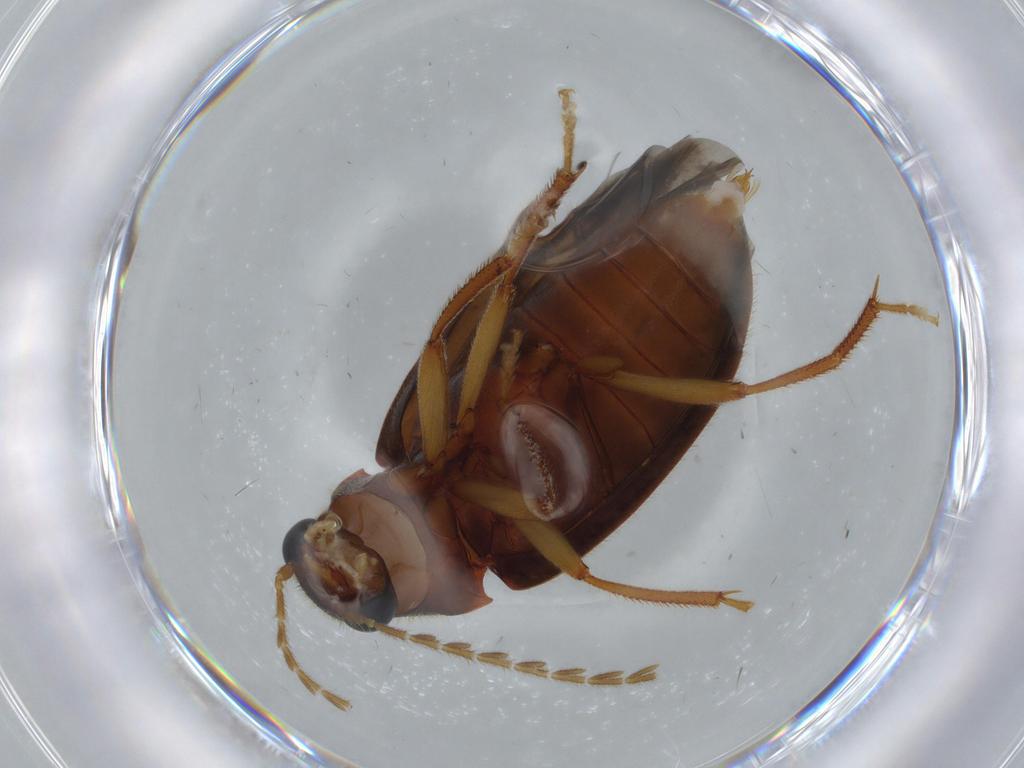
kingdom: Animalia
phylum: Arthropoda
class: Insecta
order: Coleoptera
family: Ptilodactylidae
